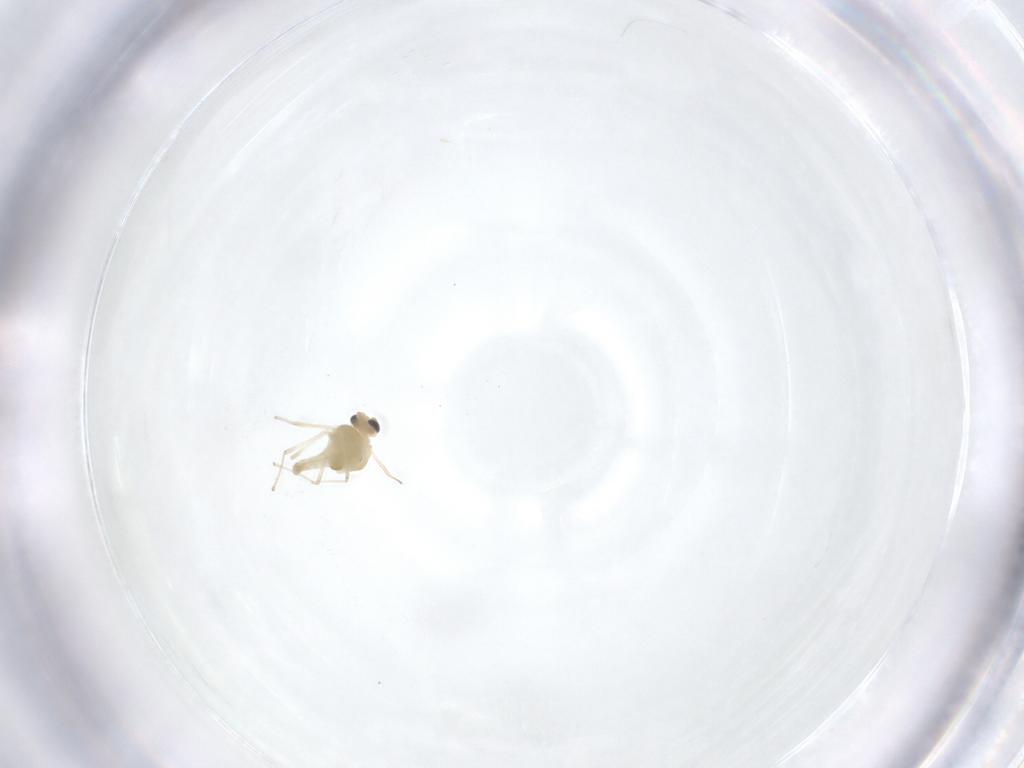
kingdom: Animalia
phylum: Arthropoda
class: Insecta
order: Diptera
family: Chironomidae
